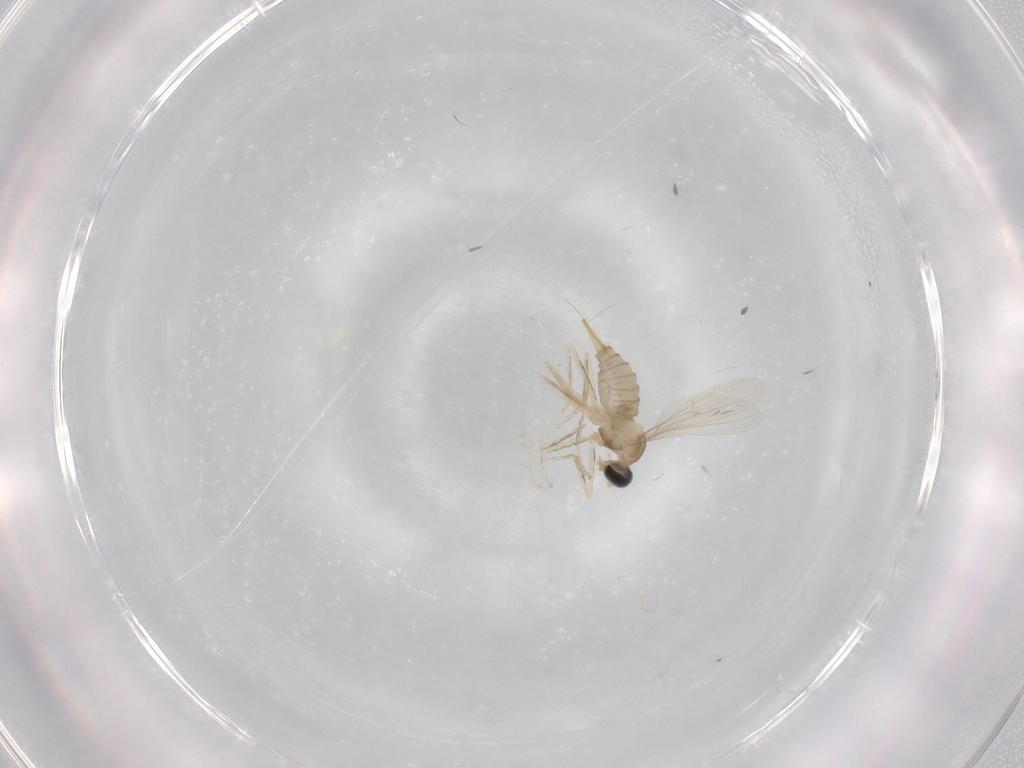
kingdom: Animalia
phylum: Arthropoda
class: Insecta
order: Diptera
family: Cecidomyiidae
